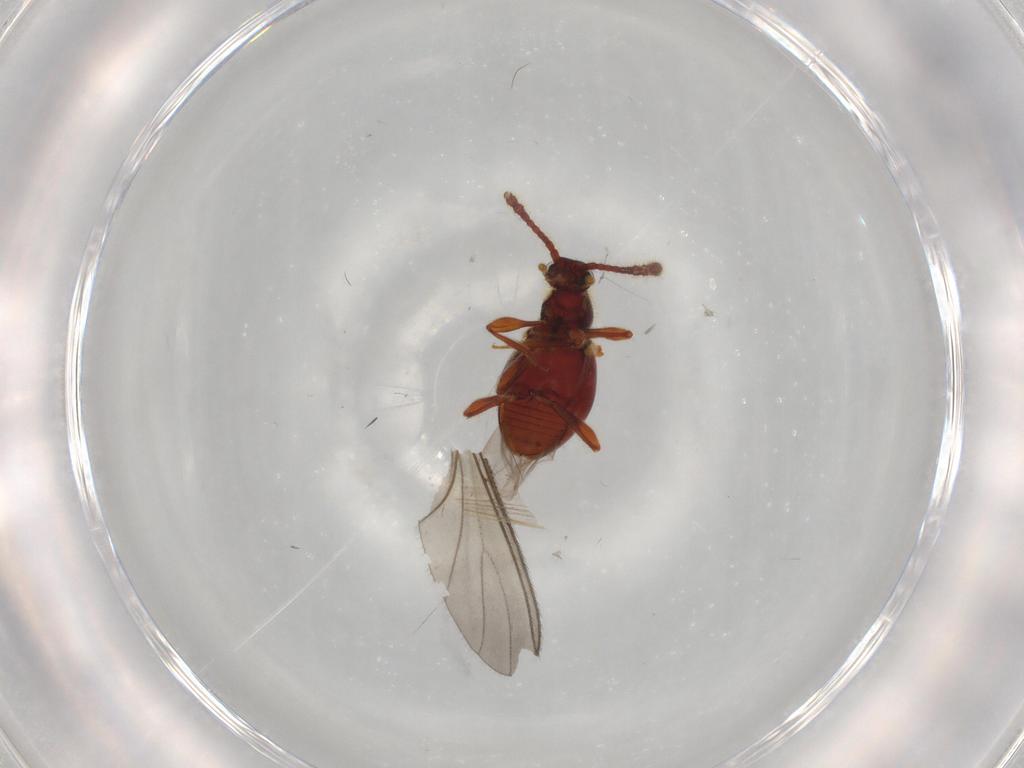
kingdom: Animalia
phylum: Arthropoda
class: Insecta
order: Coleoptera
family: Staphylinidae
